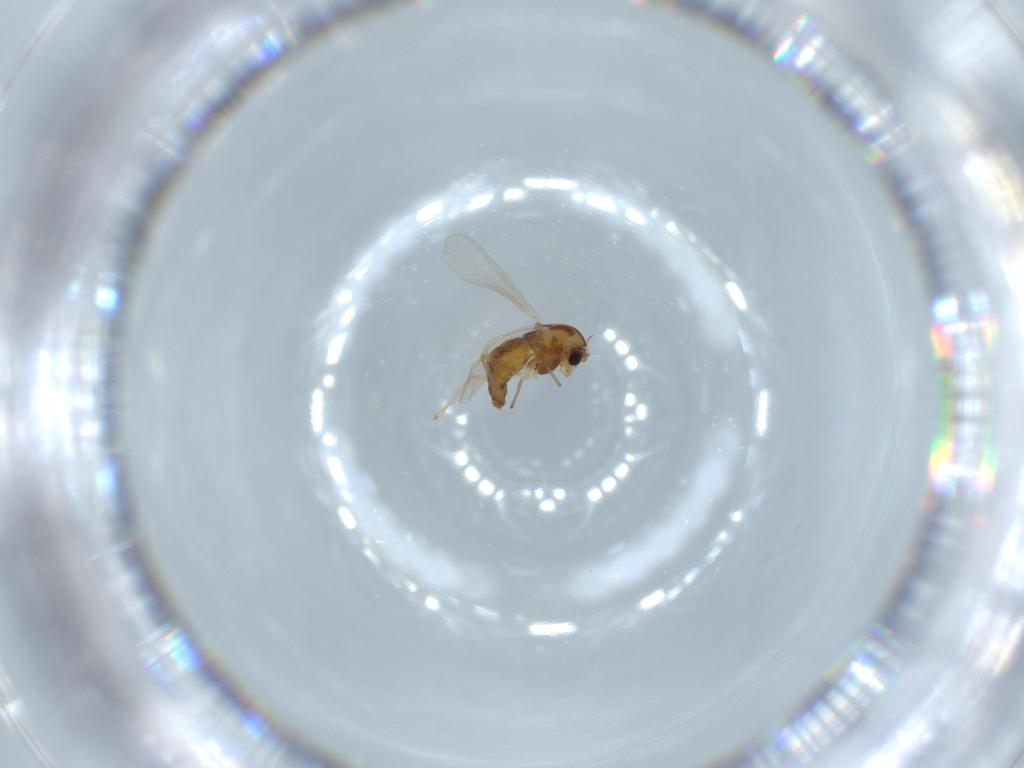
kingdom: Animalia
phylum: Arthropoda
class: Insecta
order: Diptera
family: Chironomidae
